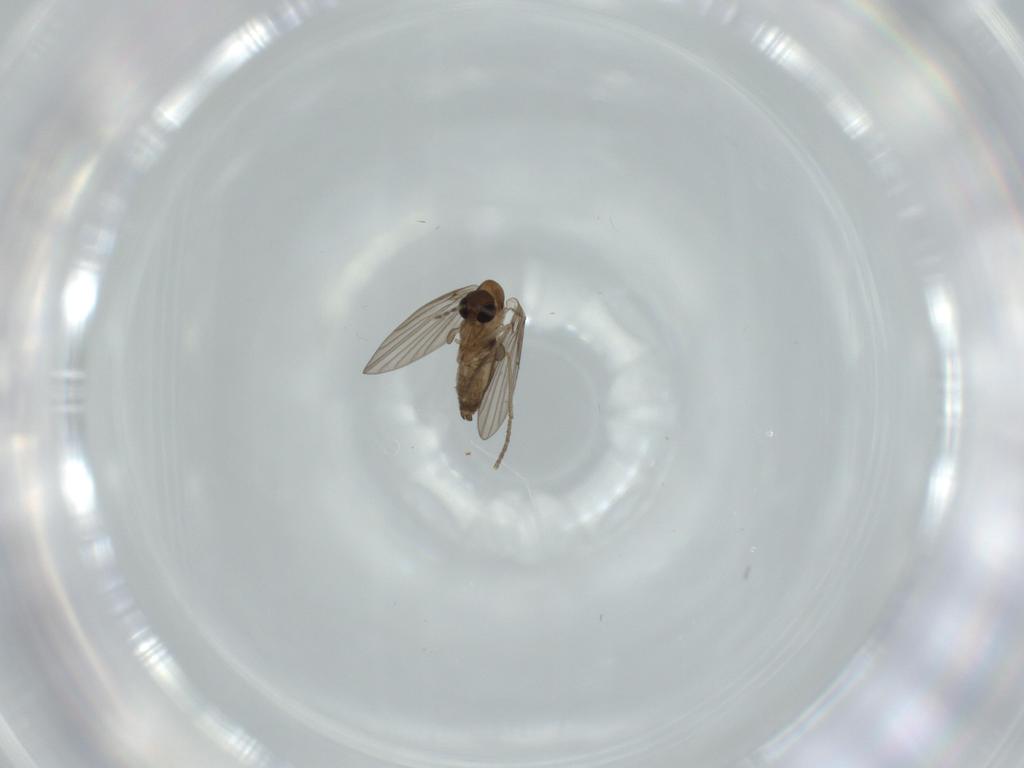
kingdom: Animalia
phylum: Arthropoda
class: Insecta
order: Diptera
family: Psychodidae
